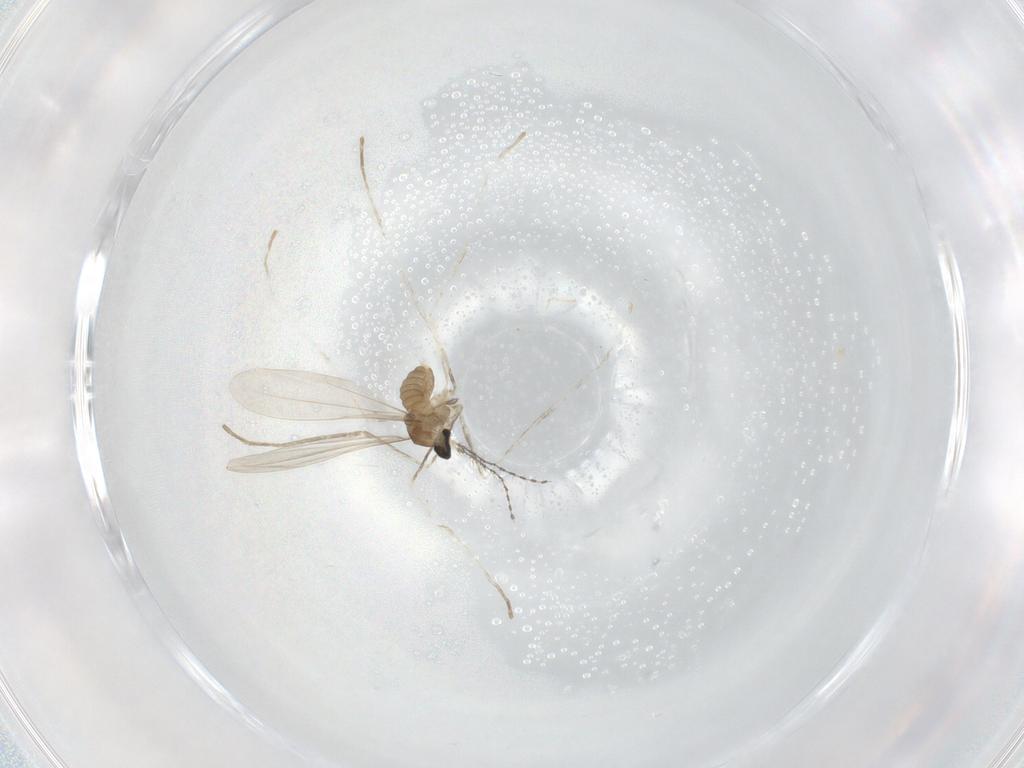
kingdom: Animalia
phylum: Arthropoda
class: Insecta
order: Diptera
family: Cecidomyiidae
